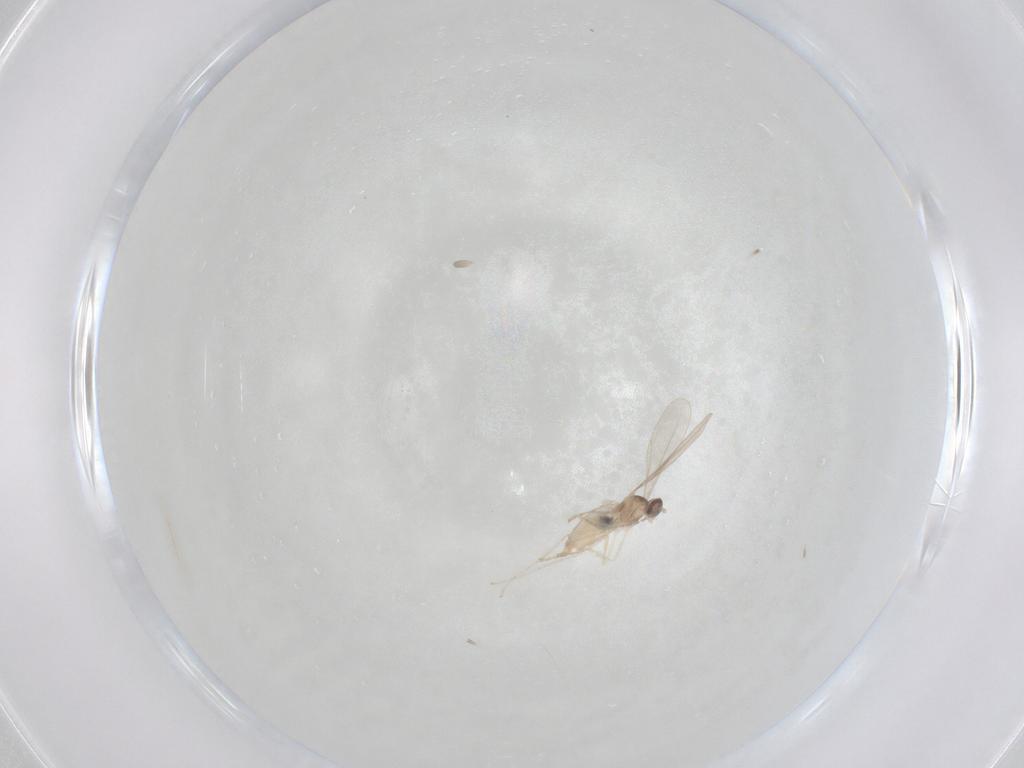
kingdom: Animalia
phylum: Arthropoda
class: Insecta
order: Diptera
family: Cecidomyiidae
